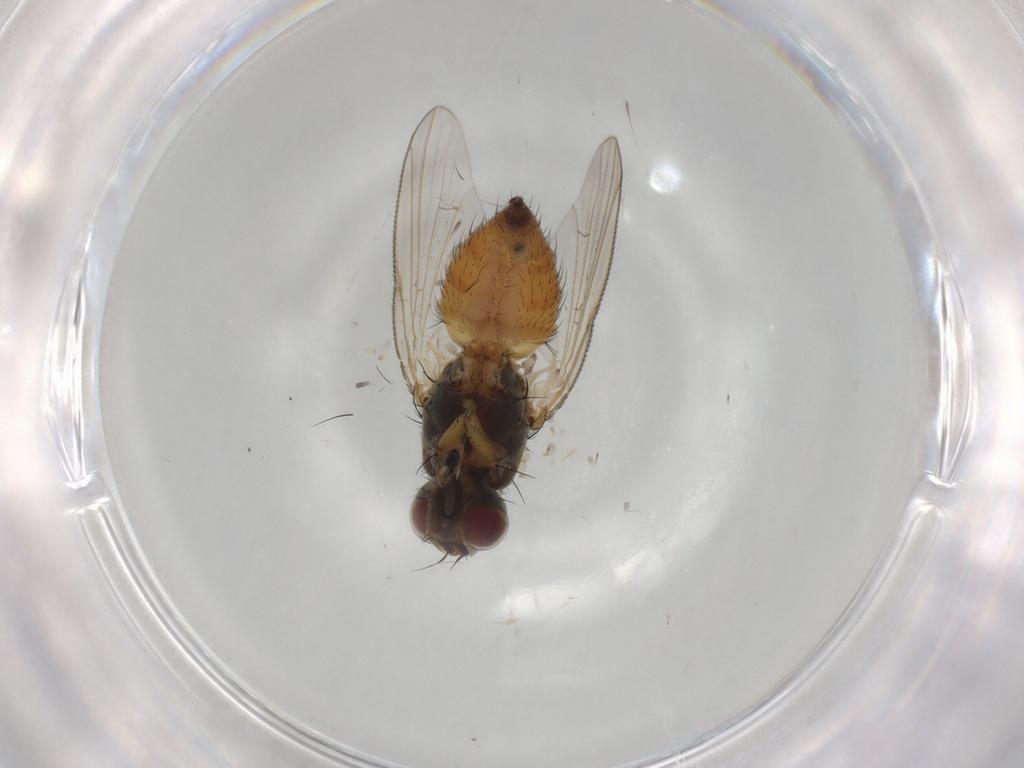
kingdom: Animalia
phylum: Arthropoda
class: Insecta
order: Diptera
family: Muscidae
